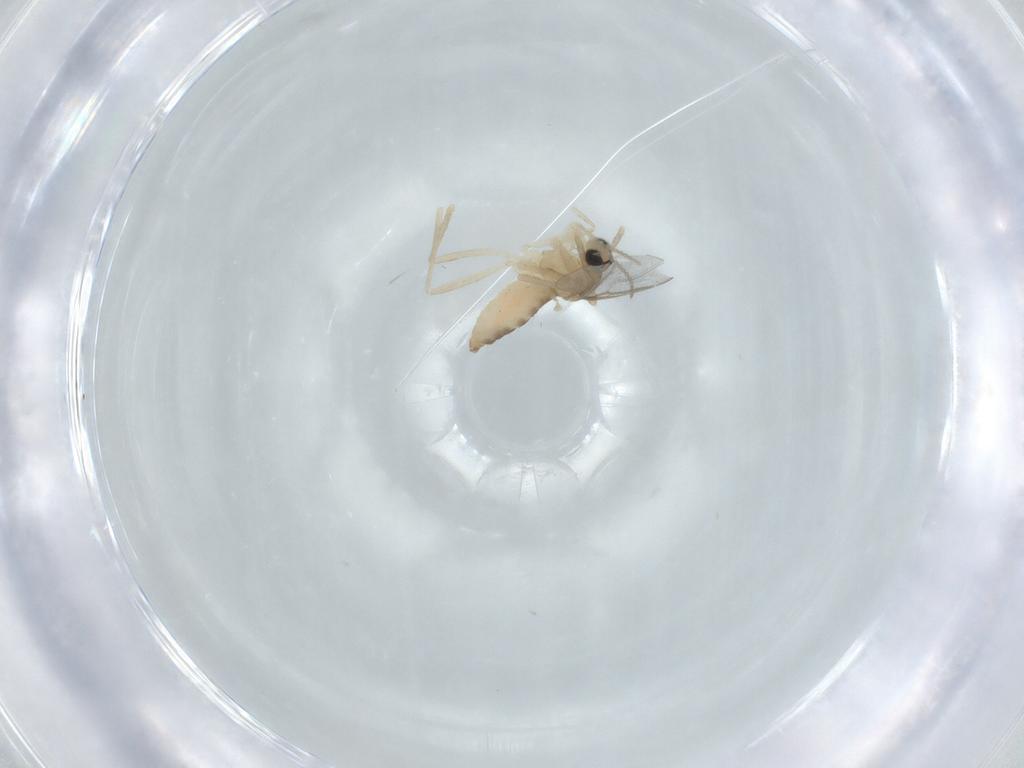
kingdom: Animalia
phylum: Arthropoda
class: Insecta
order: Diptera
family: Cecidomyiidae
